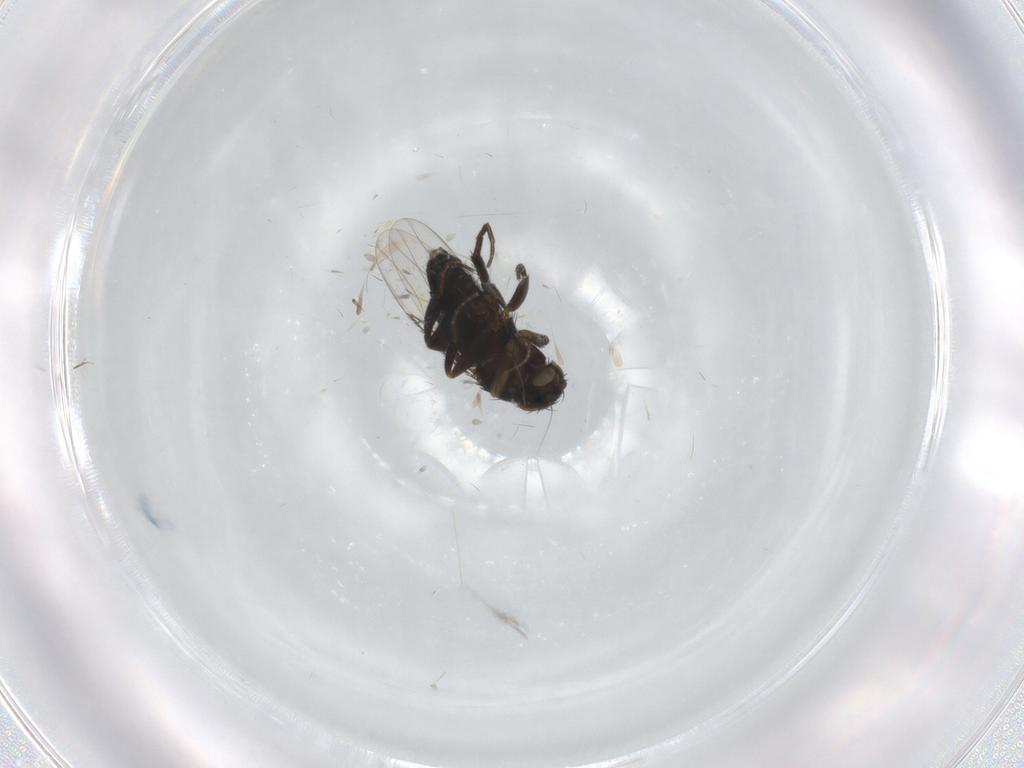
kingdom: Animalia
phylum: Arthropoda
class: Insecta
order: Diptera
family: Phoridae
